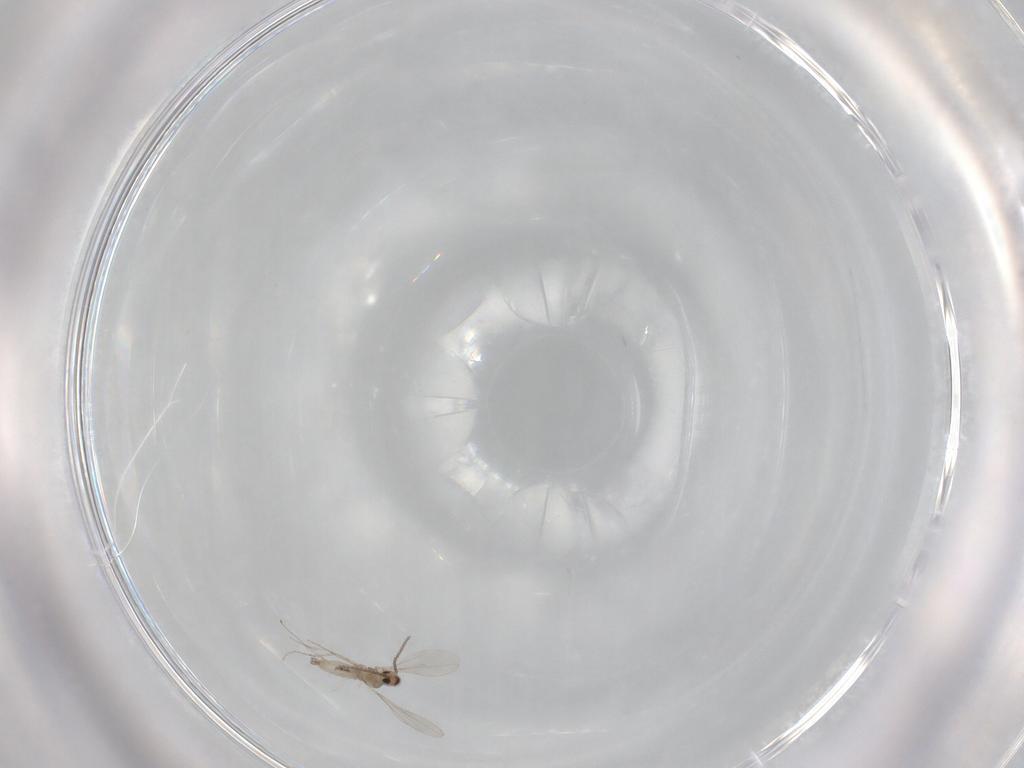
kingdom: Animalia
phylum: Arthropoda
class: Insecta
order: Diptera
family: Cecidomyiidae
